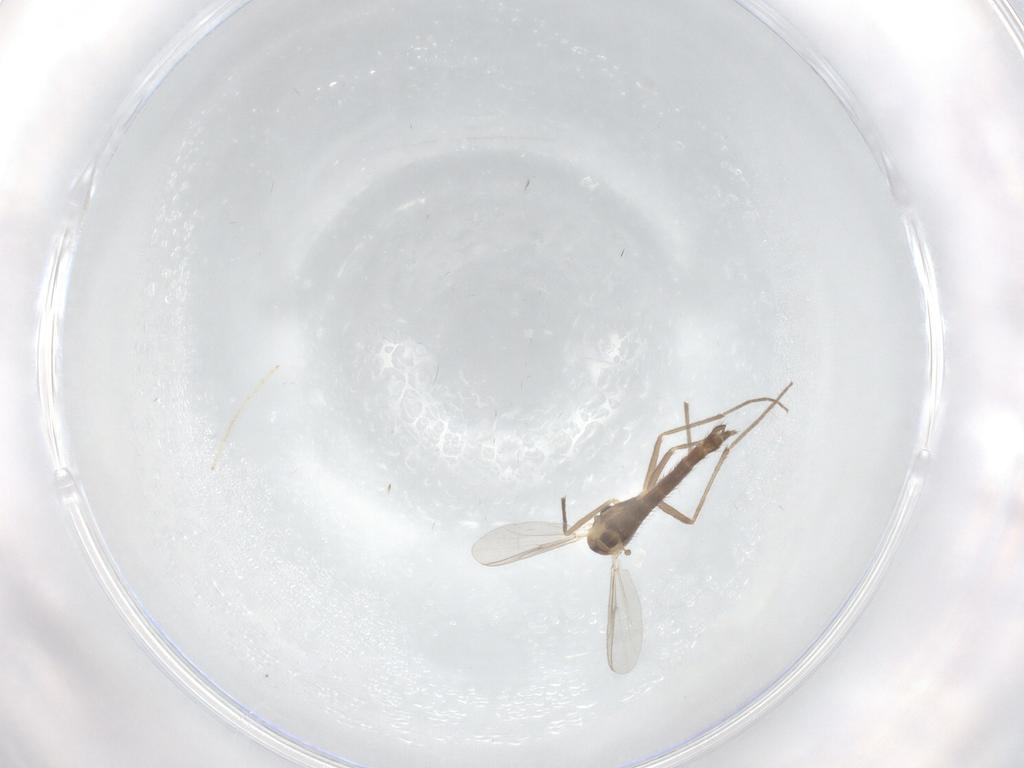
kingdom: Animalia
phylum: Arthropoda
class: Insecta
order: Diptera
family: Chironomidae
